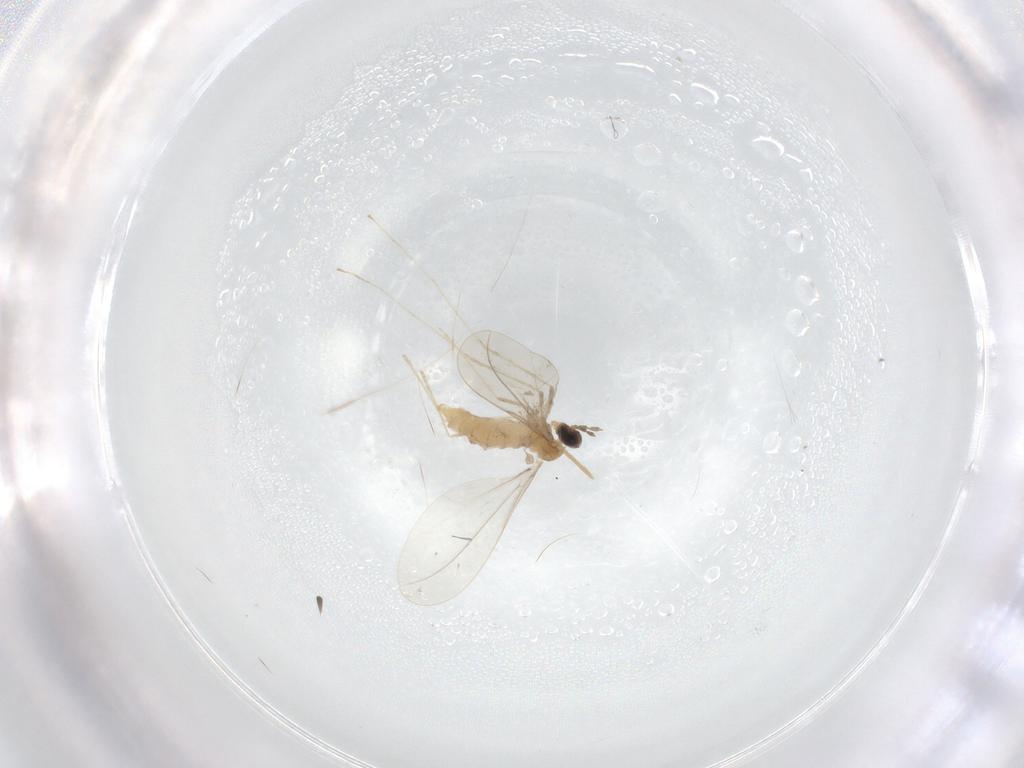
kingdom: Animalia
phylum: Arthropoda
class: Insecta
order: Diptera
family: Cecidomyiidae
